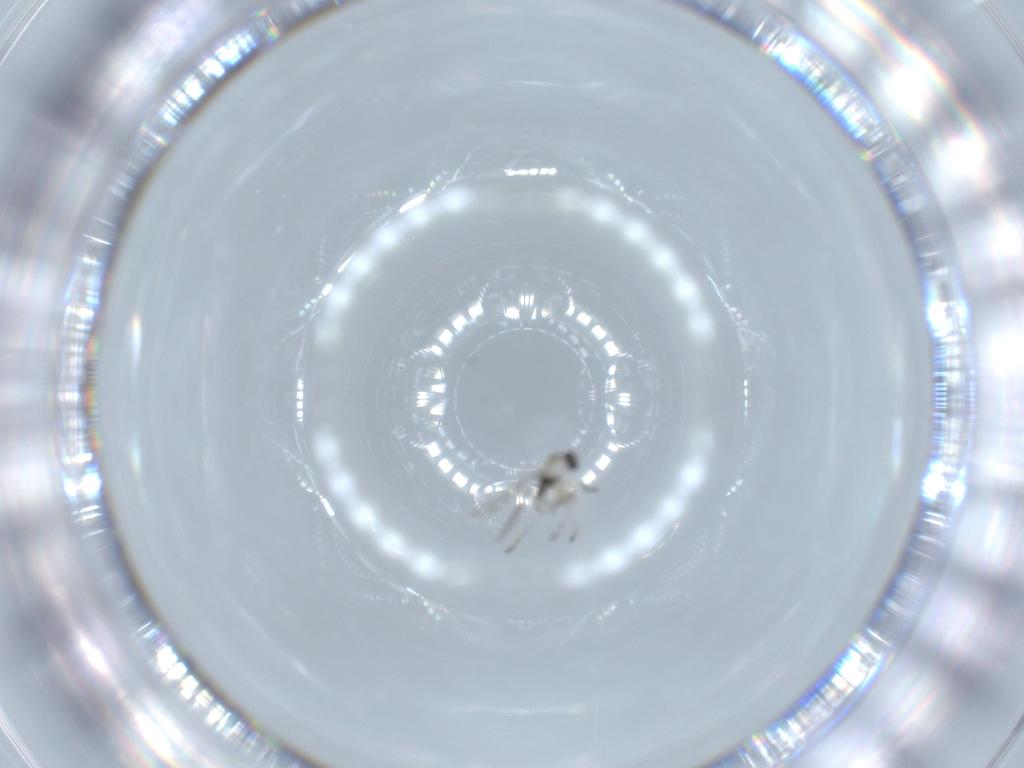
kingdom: Animalia
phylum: Arthropoda
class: Insecta
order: Diptera
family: Cecidomyiidae
